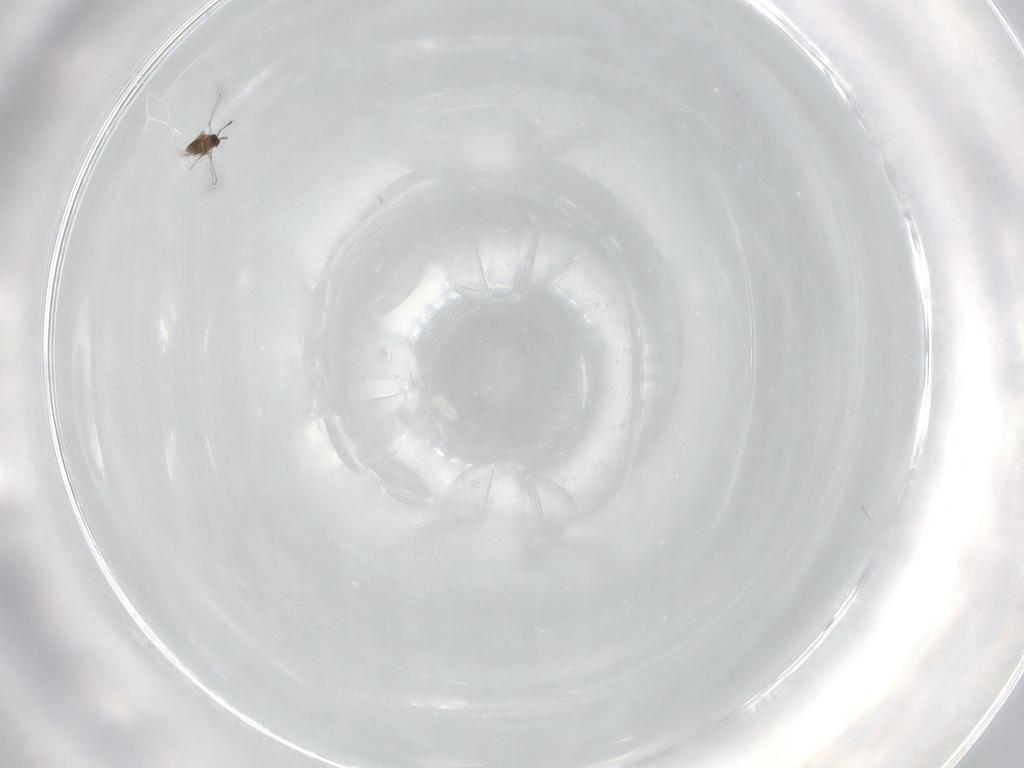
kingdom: Animalia
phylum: Arthropoda
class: Insecta
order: Hymenoptera
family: Mymaridae
